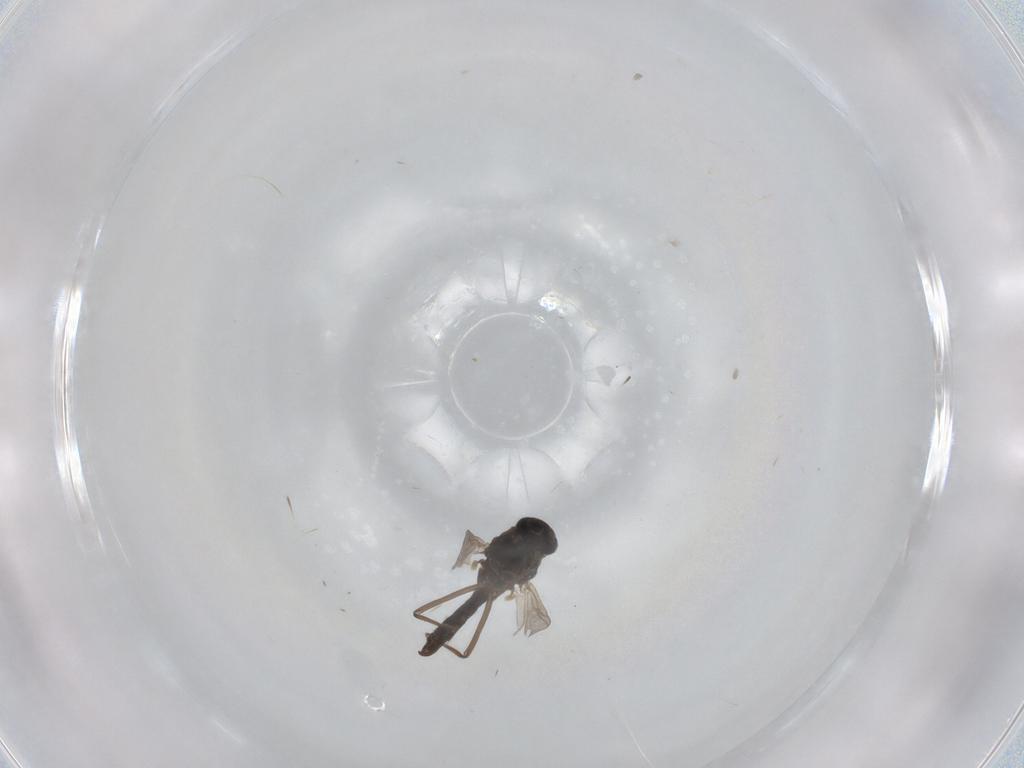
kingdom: Animalia
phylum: Arthropoda
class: Insecta
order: Diptera
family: Chironomidae
